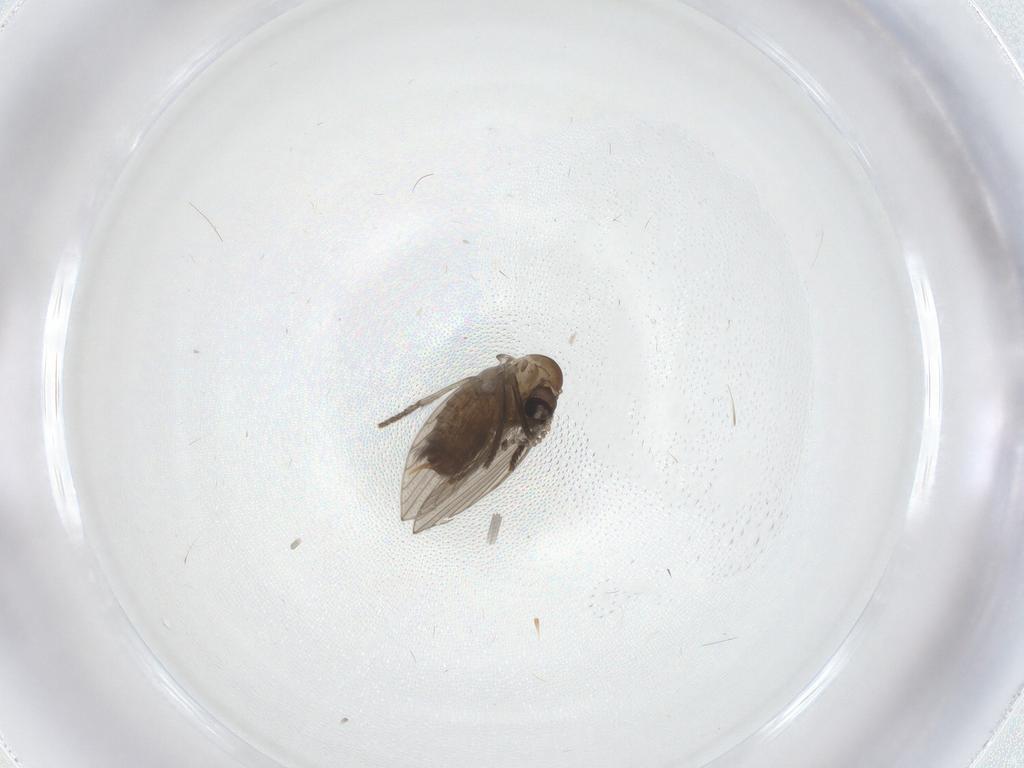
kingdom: Animalia
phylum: Arthropoda
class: Insecta
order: Diptera
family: Psychodidae
